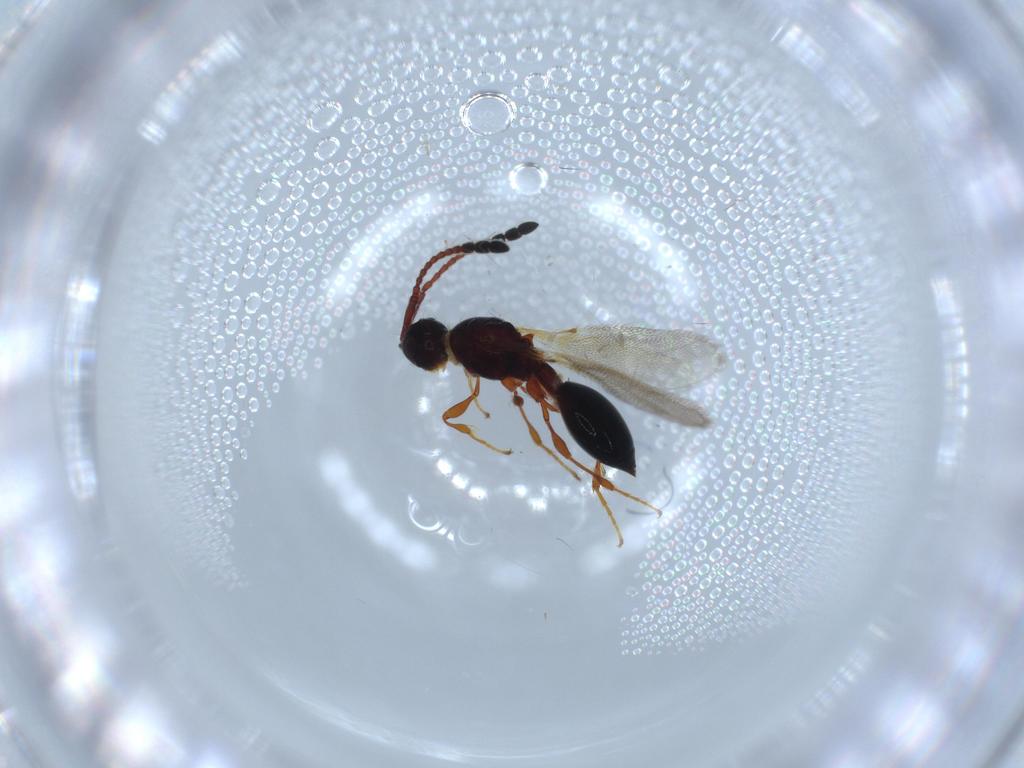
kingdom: Animalia
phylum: Arthropoda
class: Insecta
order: Hymenoptera
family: Diapriidae
